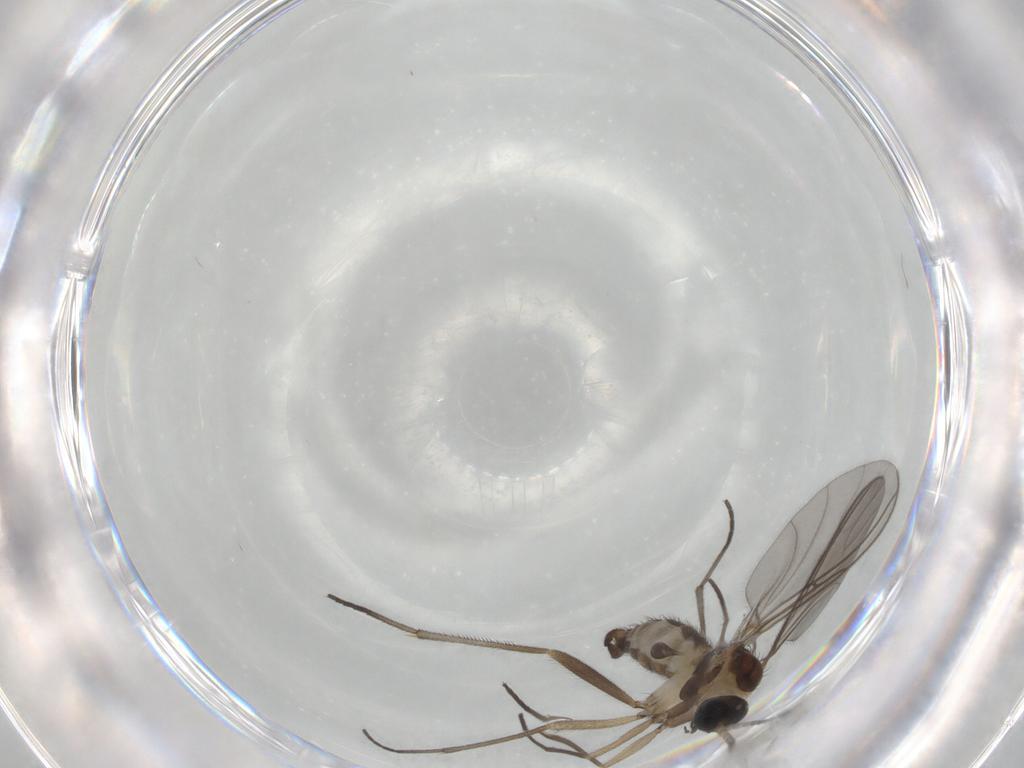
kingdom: Animalia
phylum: Arthropoda
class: Insecta
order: Diptera
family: Sciaridae
